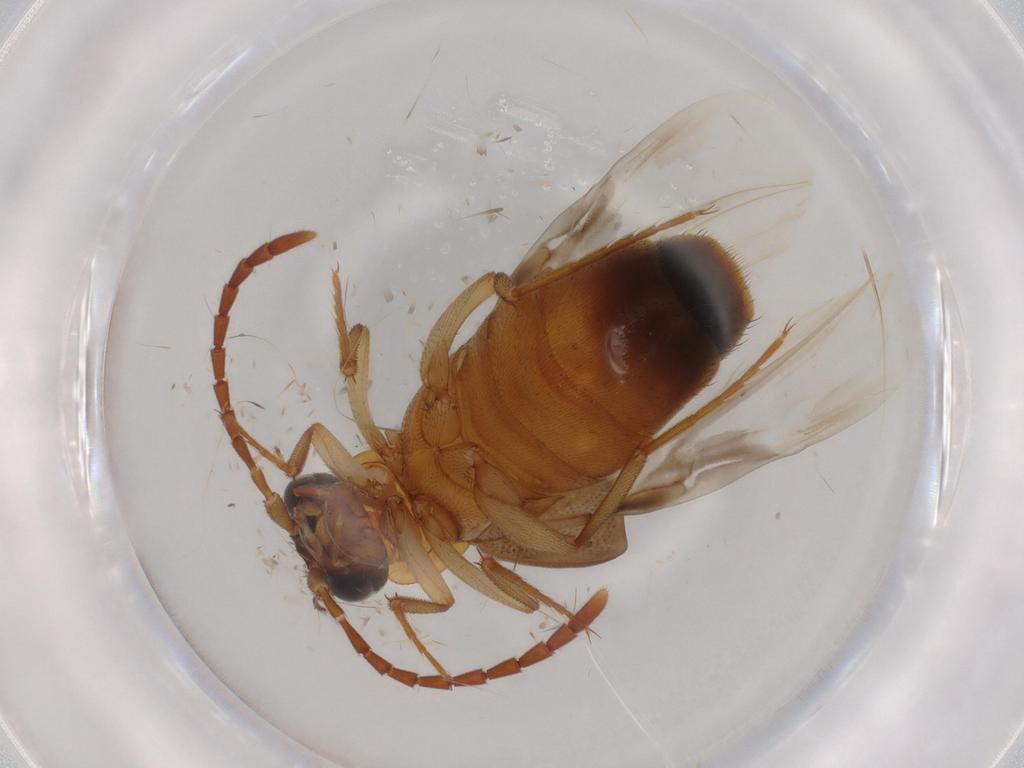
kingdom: Animalia
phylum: Arthropoda
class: Insecta
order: Coleoptera
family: Staphylinidae
